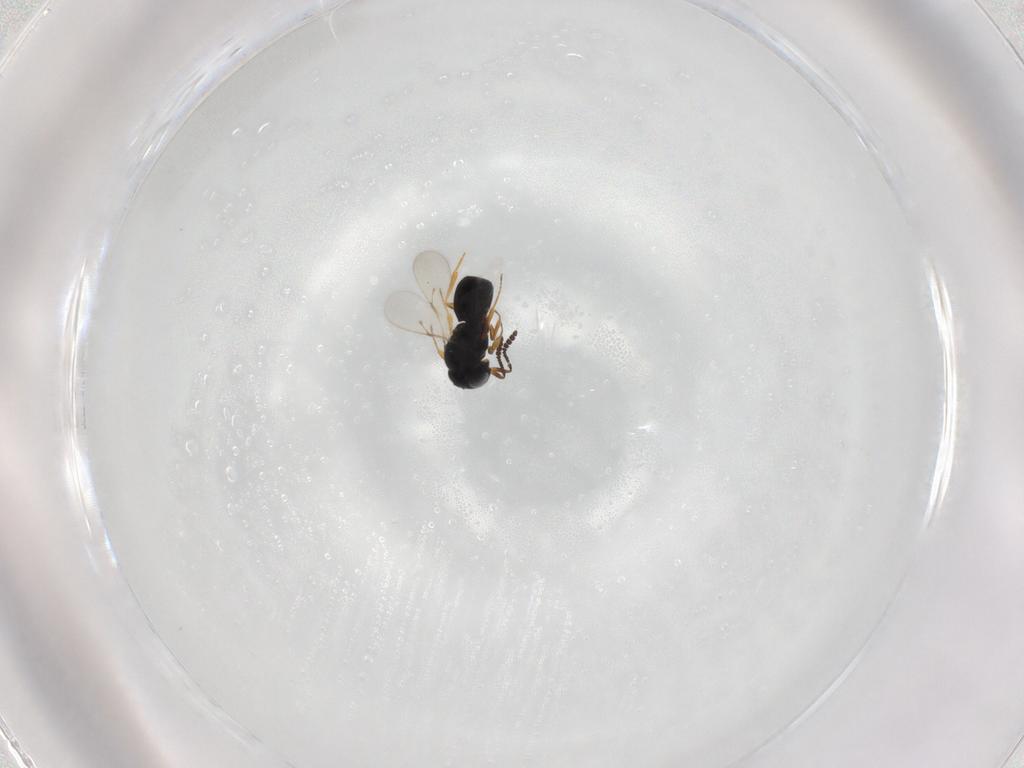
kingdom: Animalia
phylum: Arthropoda
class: Insecta
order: Hymenoptera
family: Scelionidae
